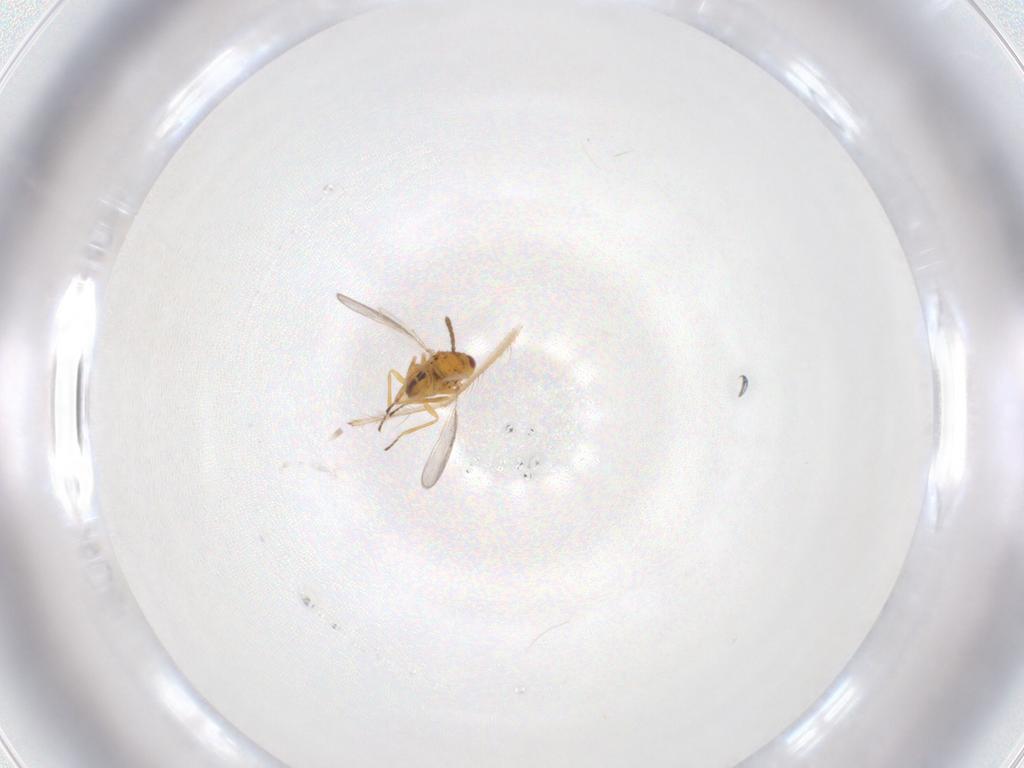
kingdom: Animalia
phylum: Arthropoda
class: Insecta
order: Hymenoptera
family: Eulophidae
